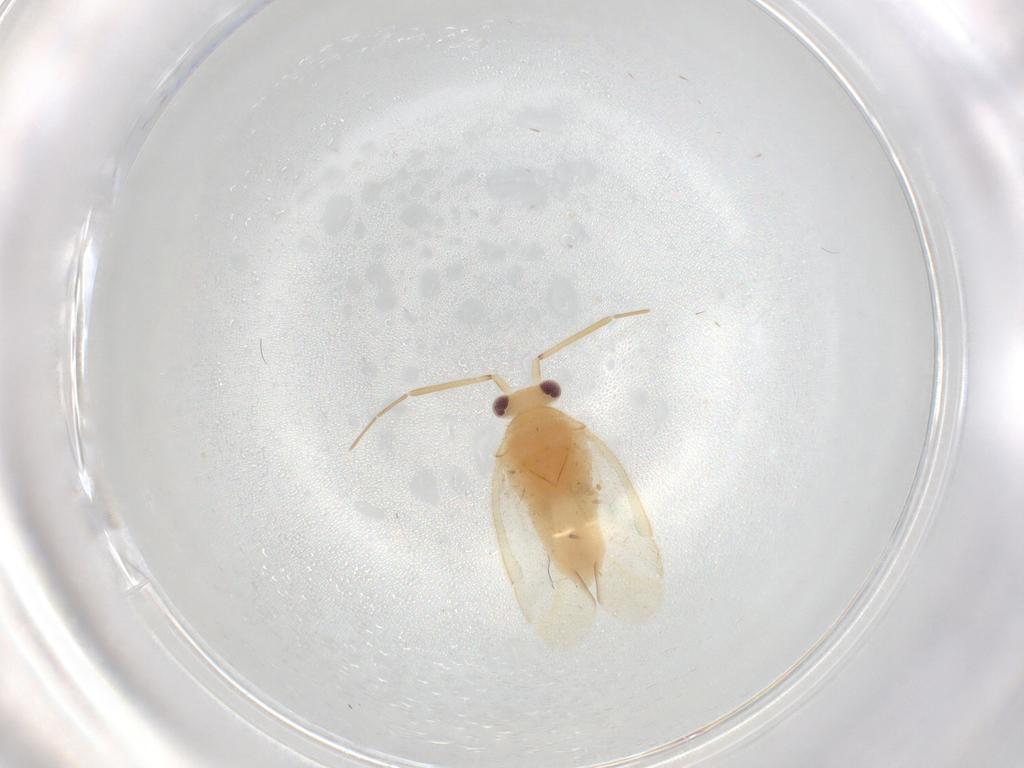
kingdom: Animalia
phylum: Arthropoda
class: Insecta
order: Hemiptera
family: Miridae
